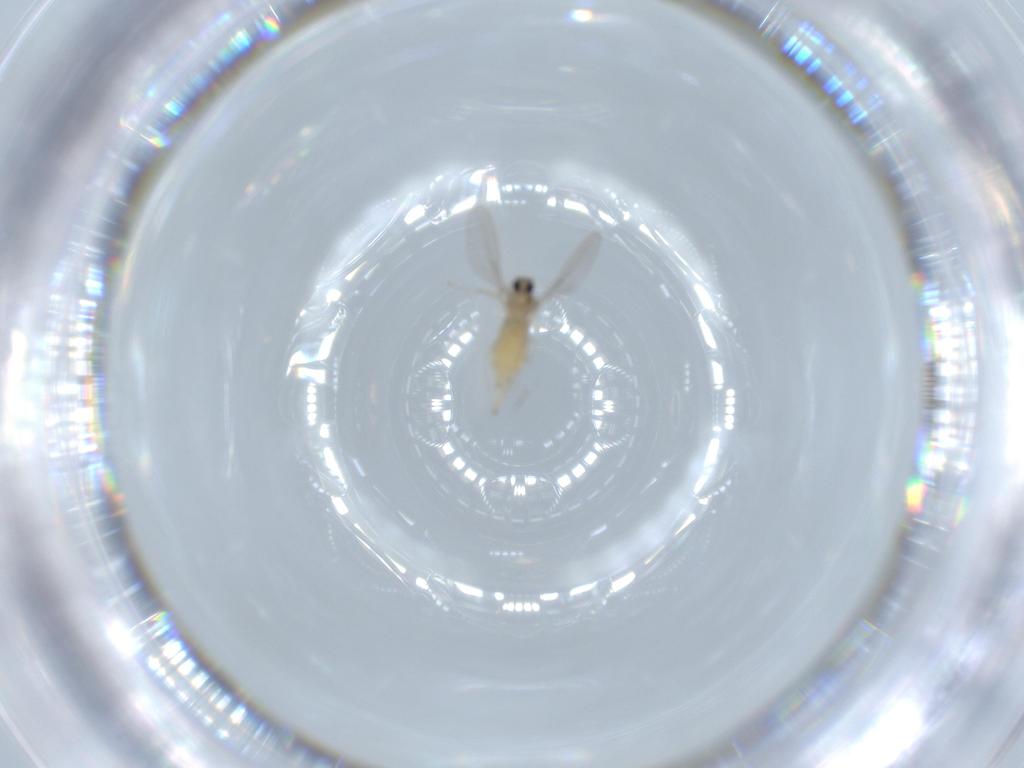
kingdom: Animalia
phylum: Arthropoda
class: Insecta
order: Diptera
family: Cecidomyiidae
